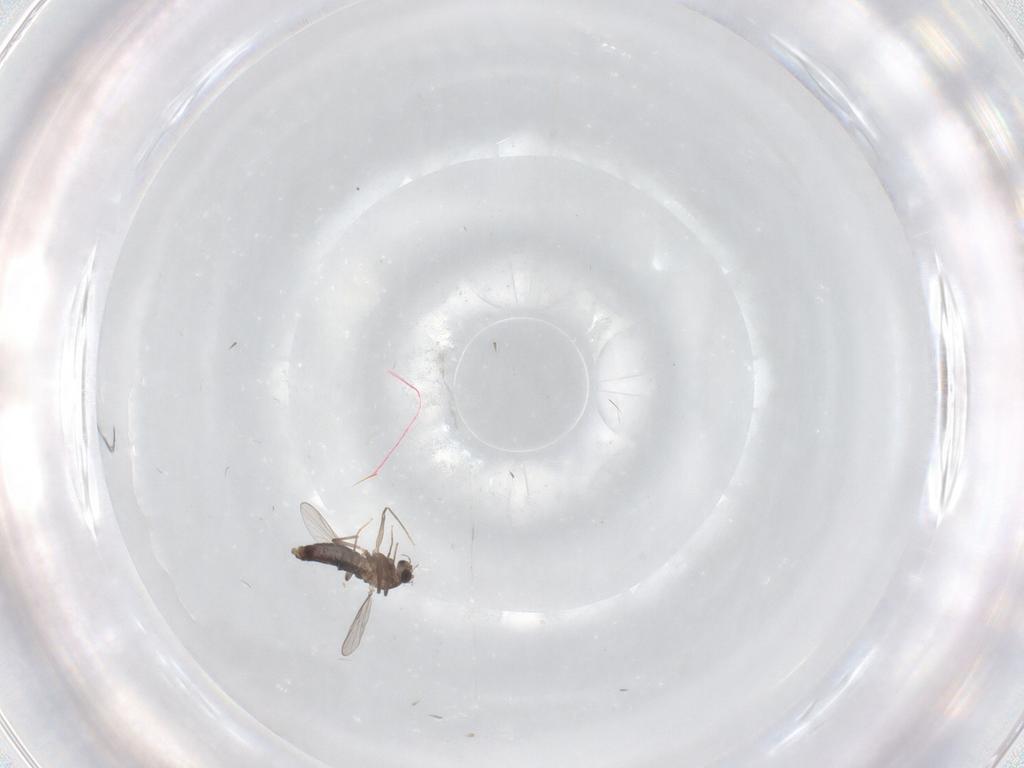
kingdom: Animalia
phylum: Arthropoda
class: Insecta
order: Diptera
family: Chironomidae
